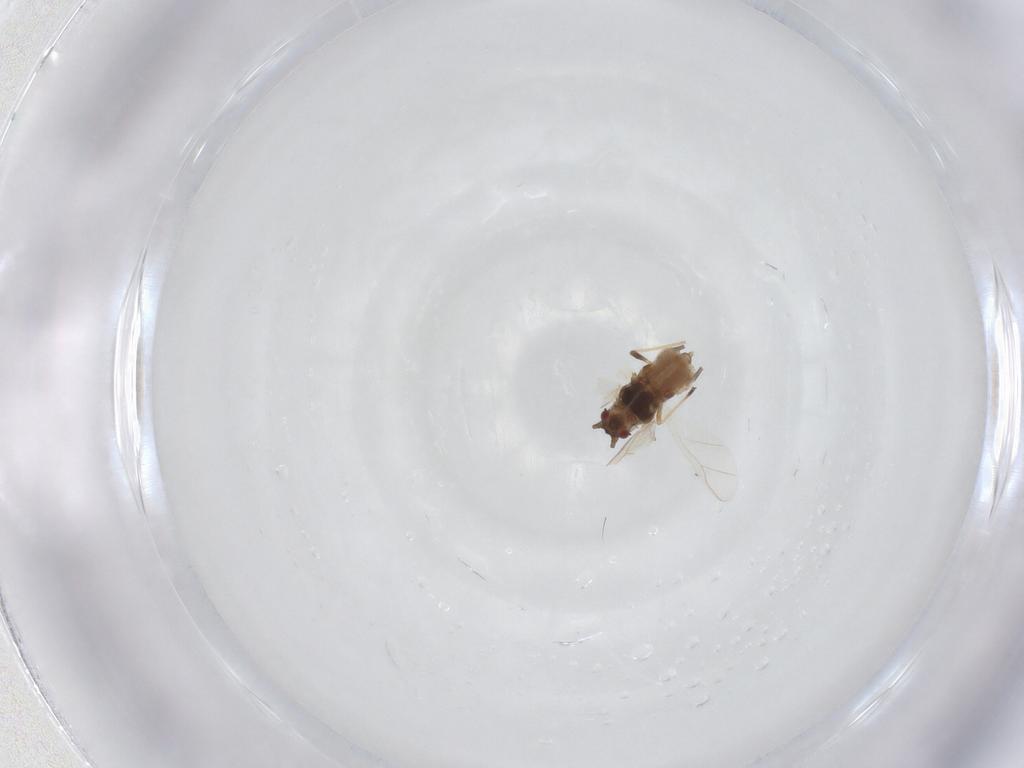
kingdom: Animalia
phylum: Arthropoda
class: Insecta
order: Hemiptera
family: Aphididae
